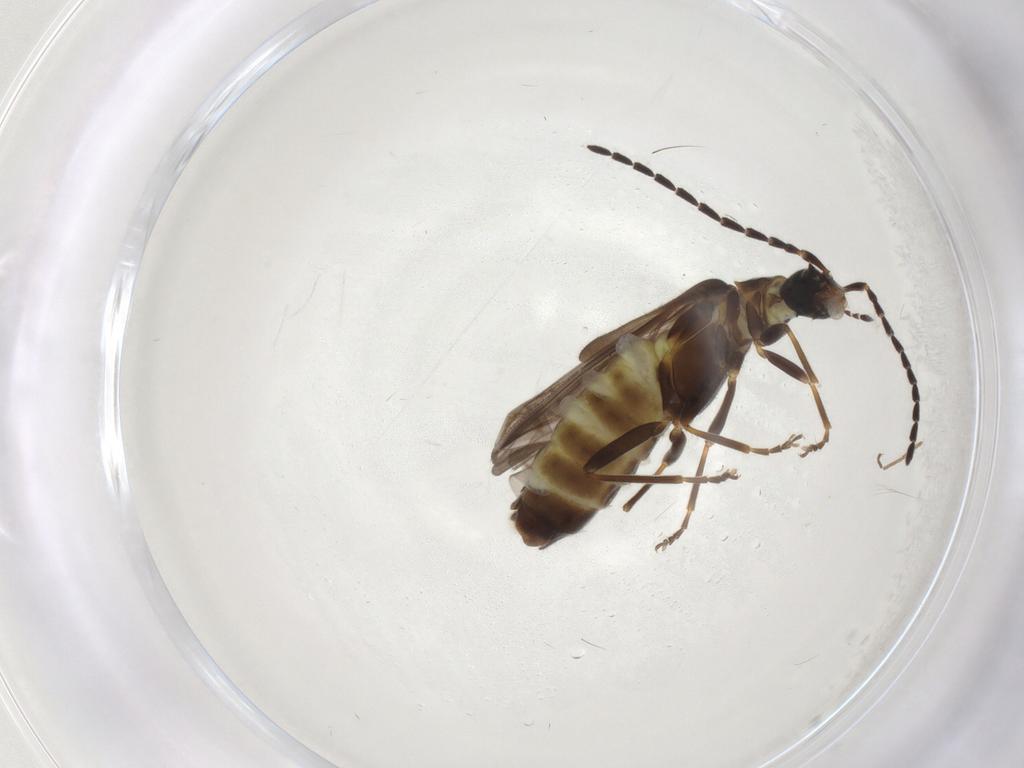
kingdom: Animalia
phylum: Arthropoda
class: Insecta
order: Coleoptera
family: Cantharidae
